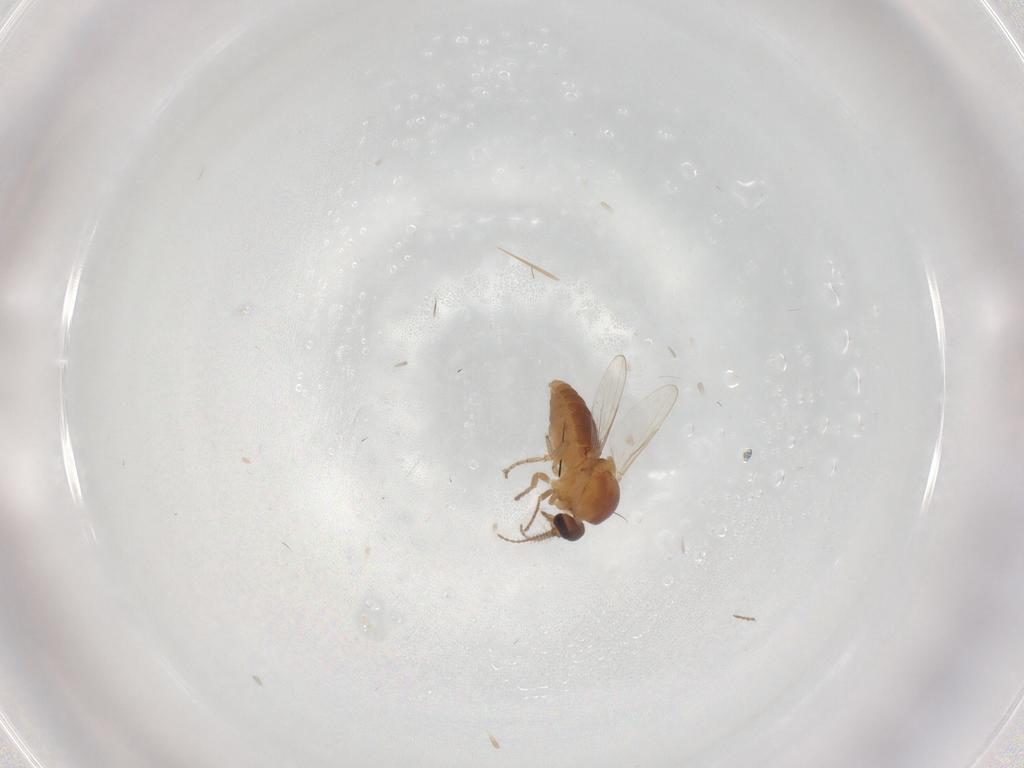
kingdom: Animalia
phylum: Arthropoda
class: Insecta
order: Diptera
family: Ceratopogonidae
